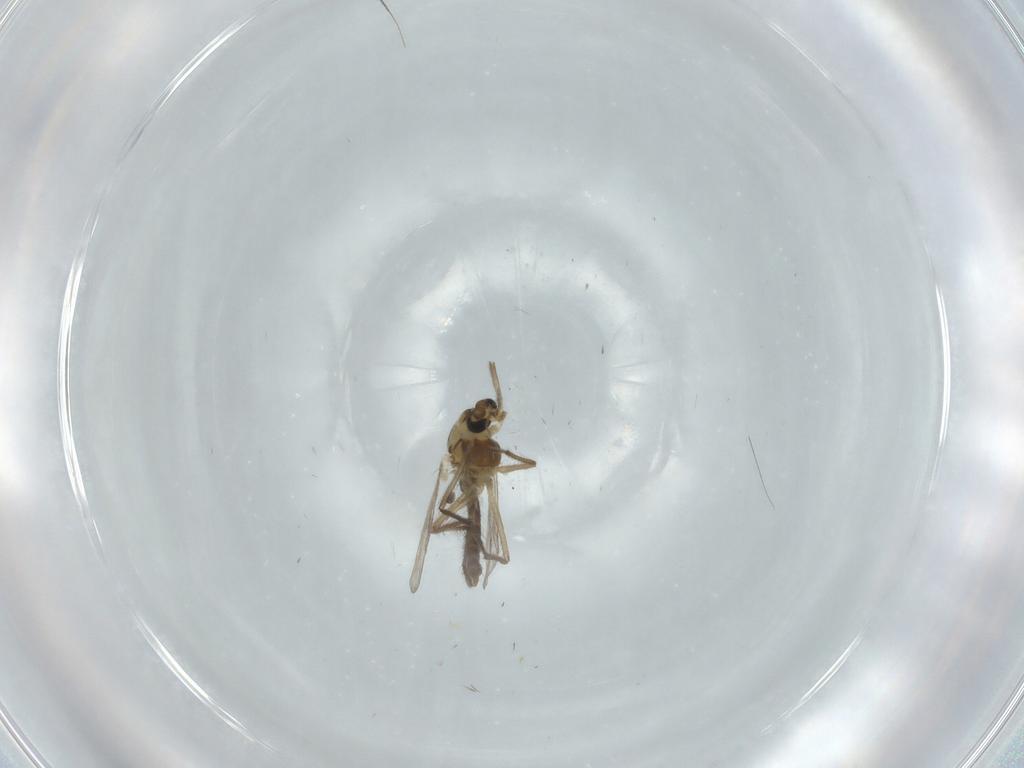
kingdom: Animalia
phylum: Arthropoda
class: Insecta
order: Diptera
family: Chironomidae
